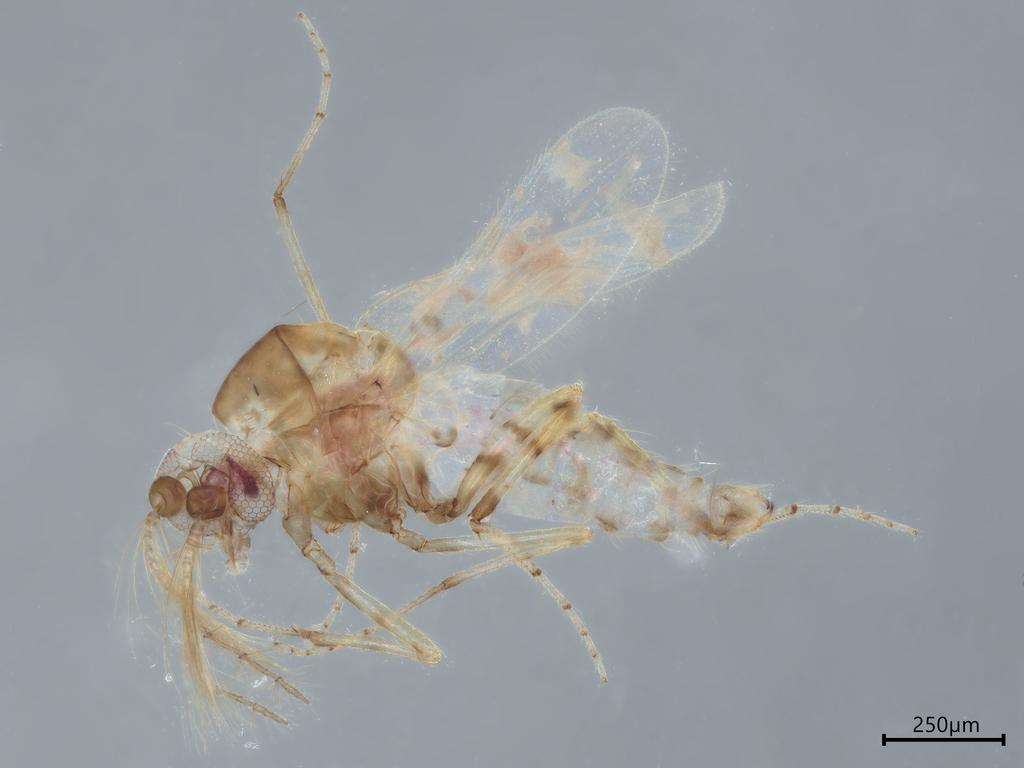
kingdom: Animalia
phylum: Arthropoda
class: Insecta
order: Diptera
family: Ceratopogonidae
